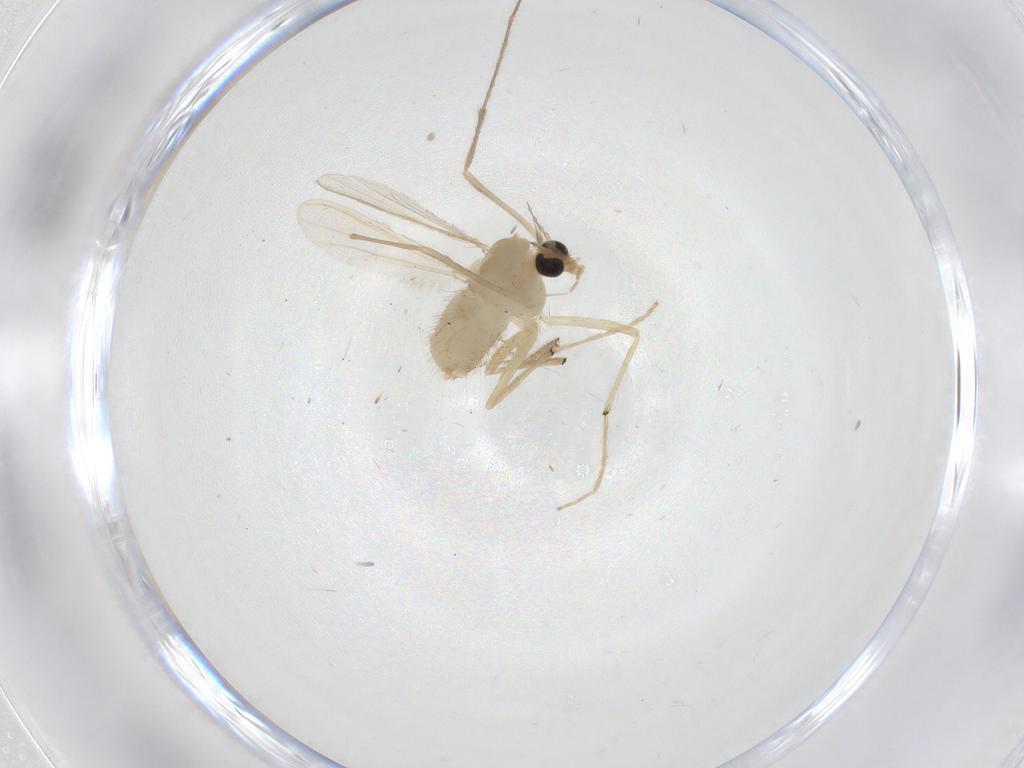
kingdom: Animalia
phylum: Arthropoda
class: Insecta
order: Diptera
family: Chironomidae
